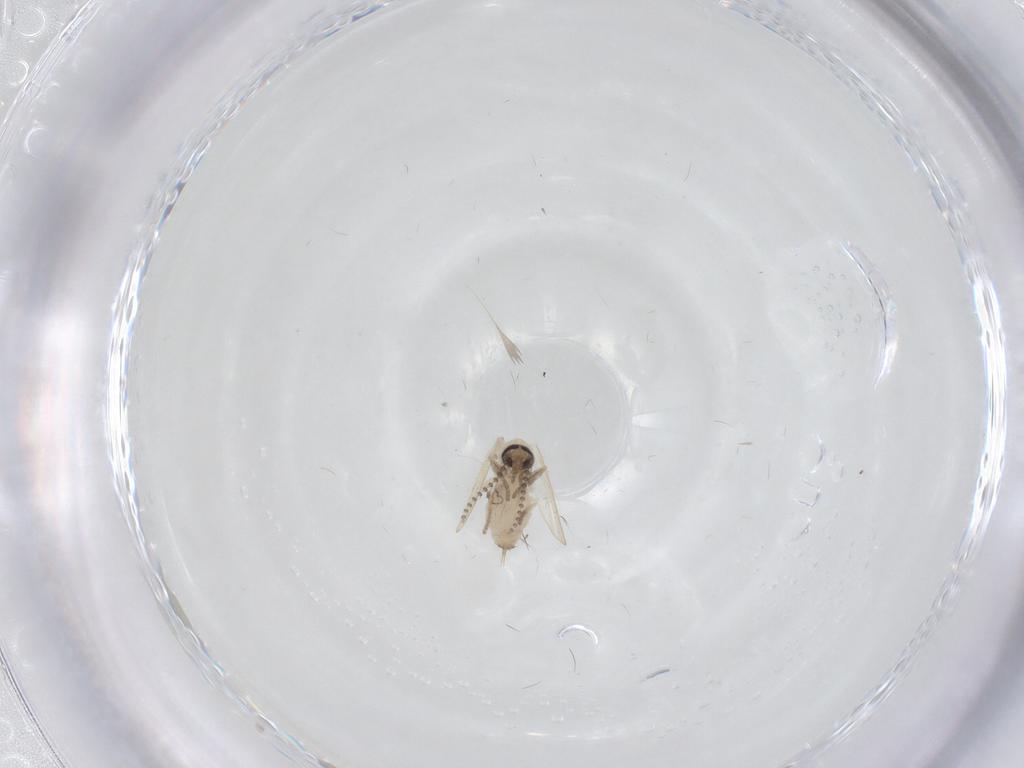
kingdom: Animalia
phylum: Arthropoda
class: Insecta
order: Diptera
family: Psychodidae
